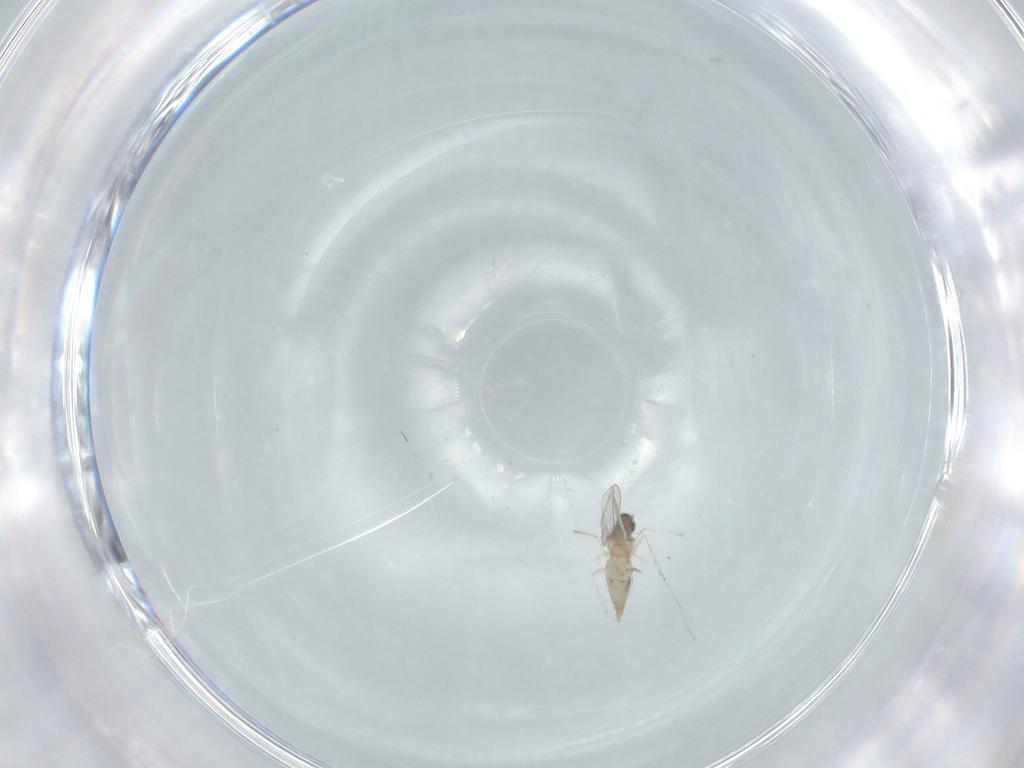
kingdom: Animalia
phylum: Arthropoda
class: Insecta
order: Diptera
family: Cecidomyiidae
